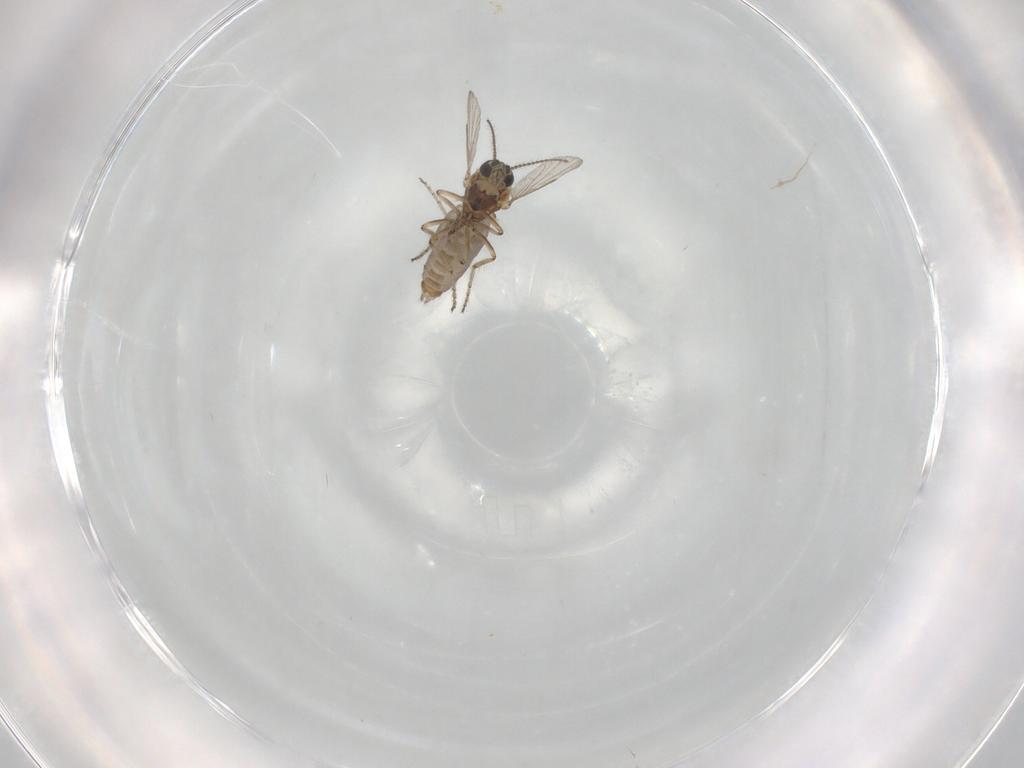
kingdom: Animalia
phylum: Arthropoda
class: Insecta
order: Diptera
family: Ceratopogonidae
